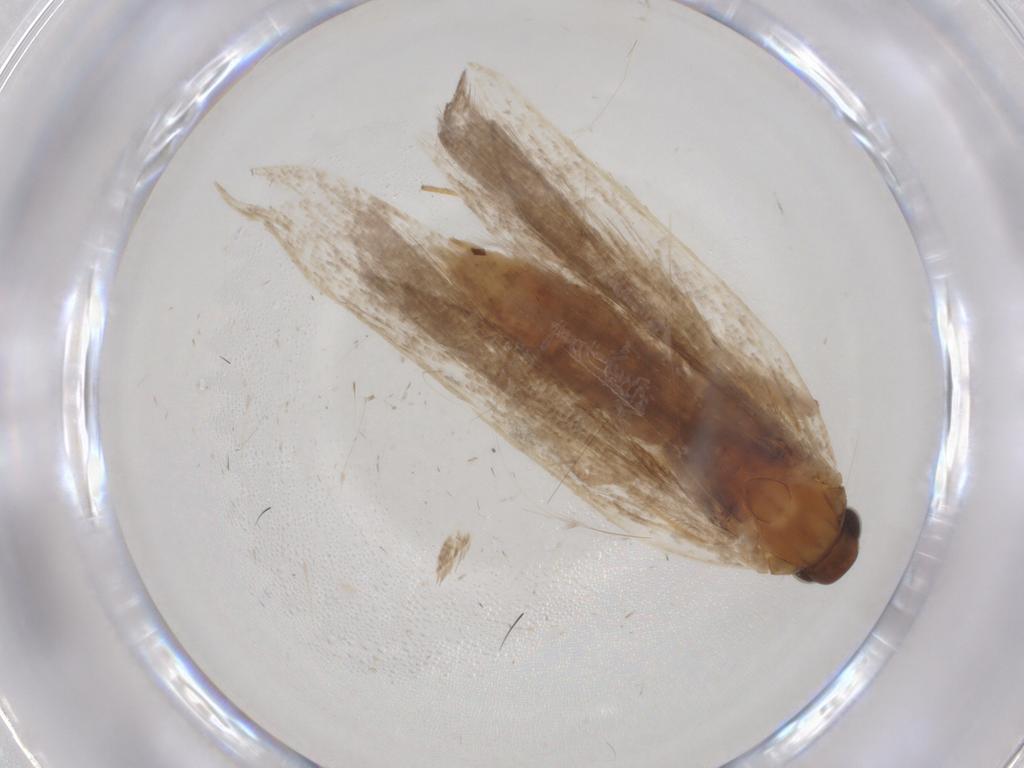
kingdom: Animalia
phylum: Arthropoda
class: Insecta
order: Lepidoptera
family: Gelechiidae
